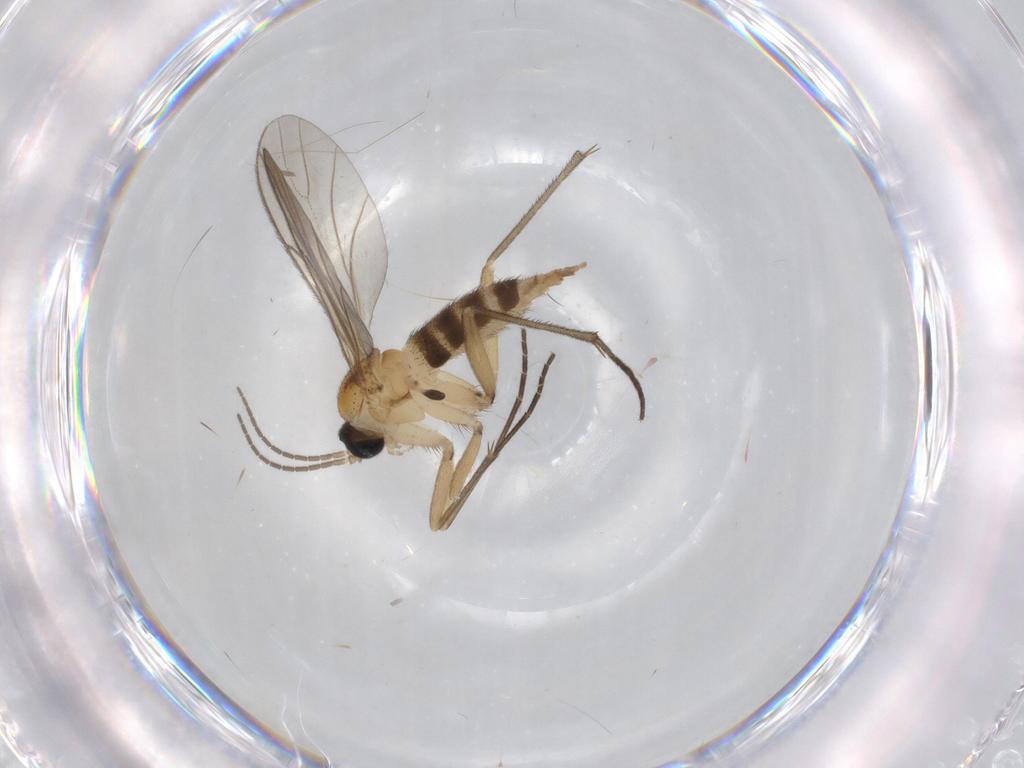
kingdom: Animalia
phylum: Arthropoda
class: Insecta
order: Diptera
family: Sciaridae
